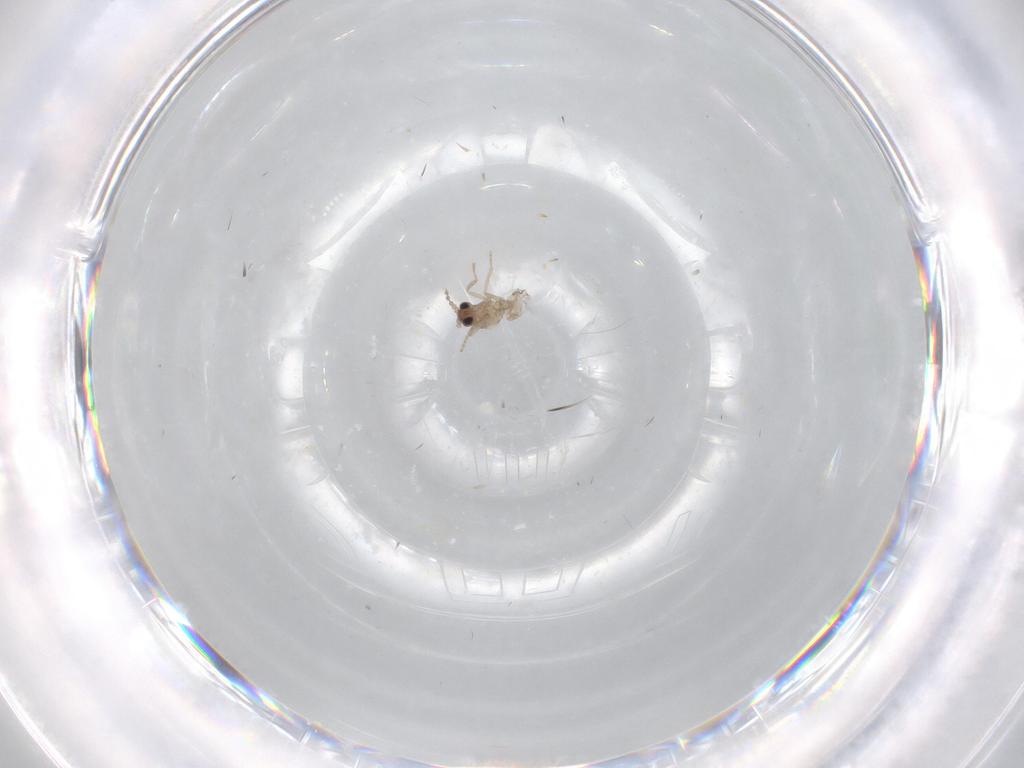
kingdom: Animalia
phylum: Arthropoda
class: Insecta
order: Diptera
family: Cecidomyiidae
